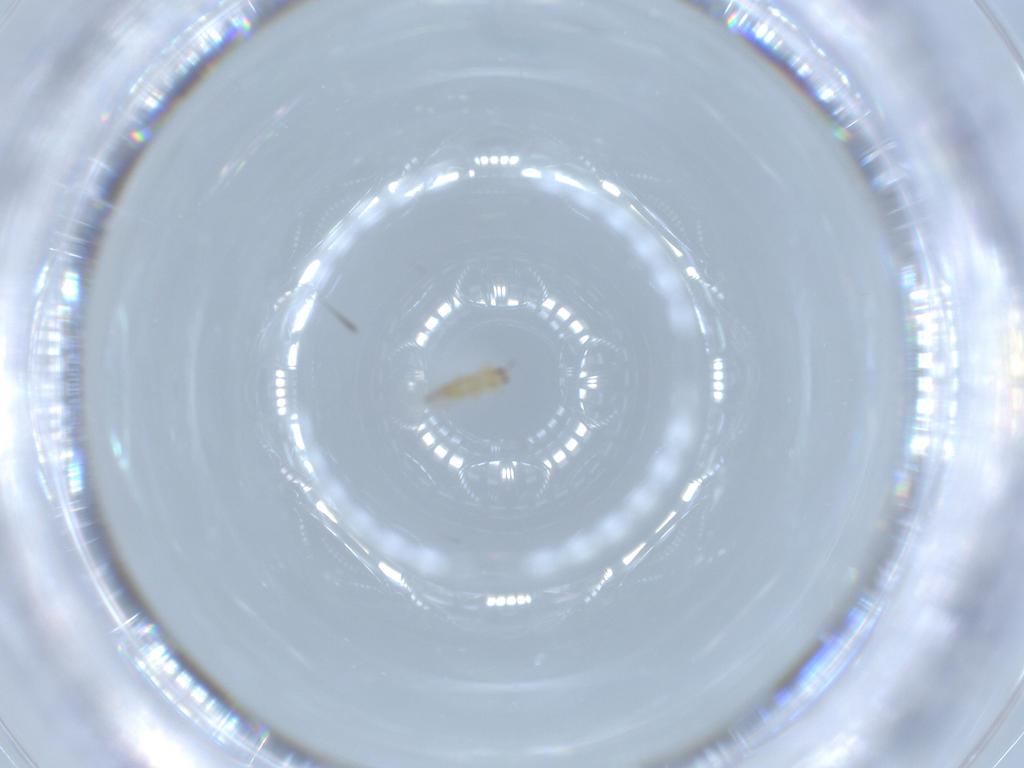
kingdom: Animalia
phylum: Arthropoda
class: Insecta
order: Thysanoptera
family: Thripidae
